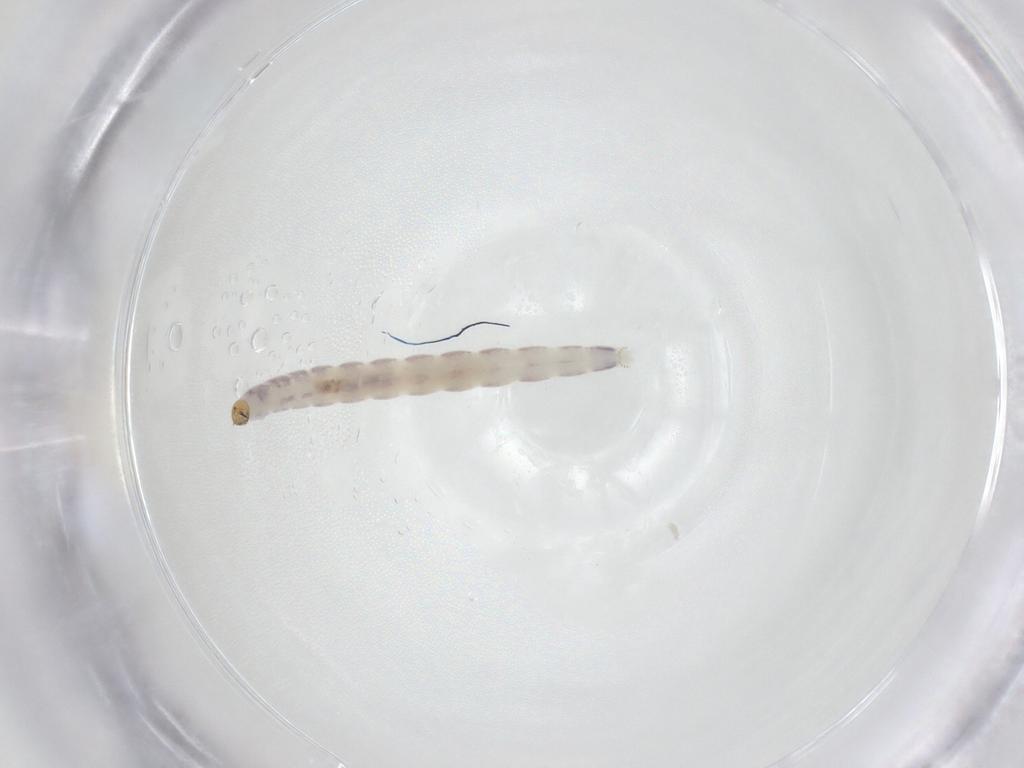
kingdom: Animalia
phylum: Arthropoda
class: Insecta
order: Diptera
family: Chironomidae
